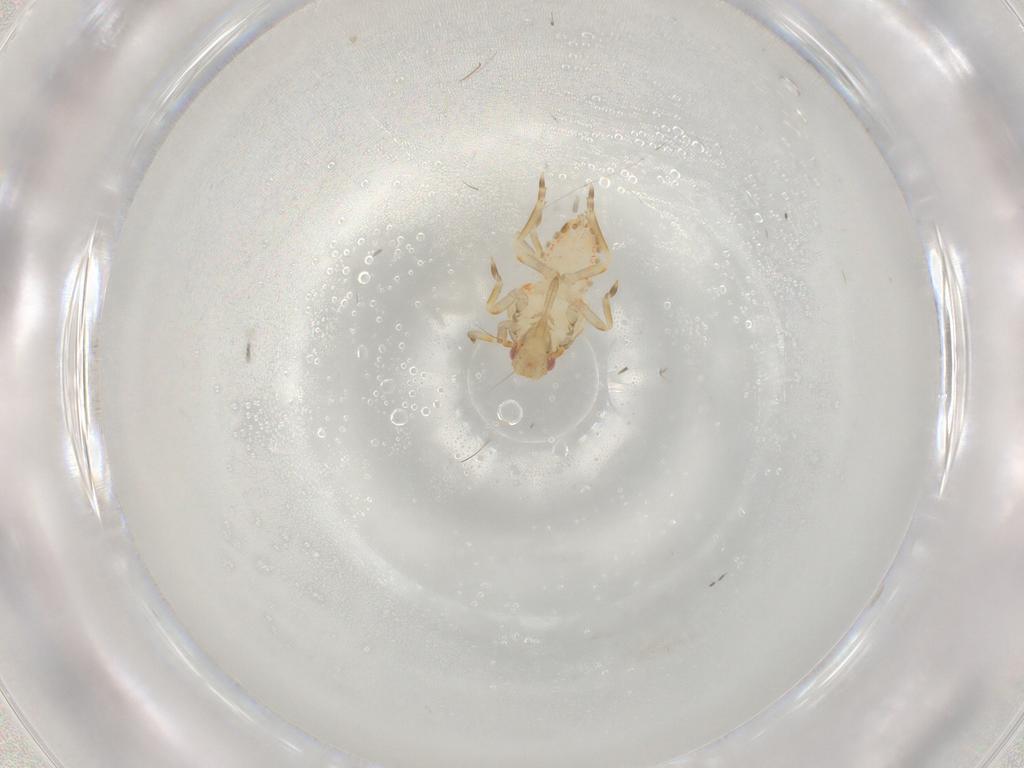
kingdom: Animalia
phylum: Arthropoda
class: Insecta
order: Hemiptera
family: Flatidae
